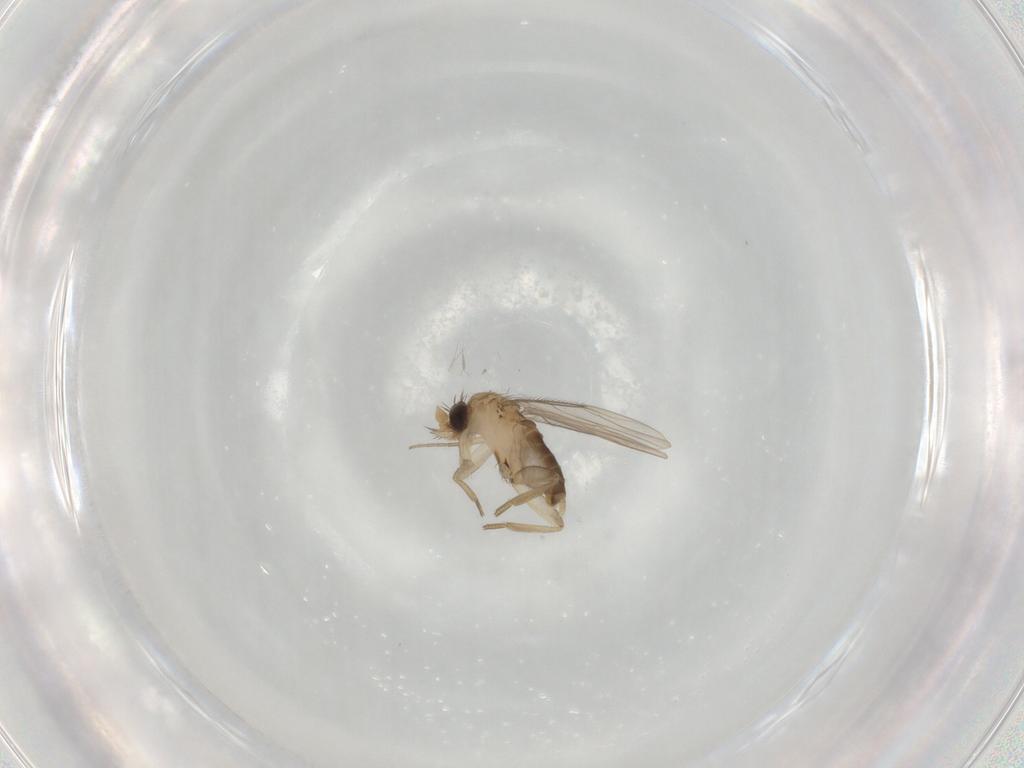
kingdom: Animalia
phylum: Arthropoda
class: Insecta
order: Diptera
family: Phoridae
